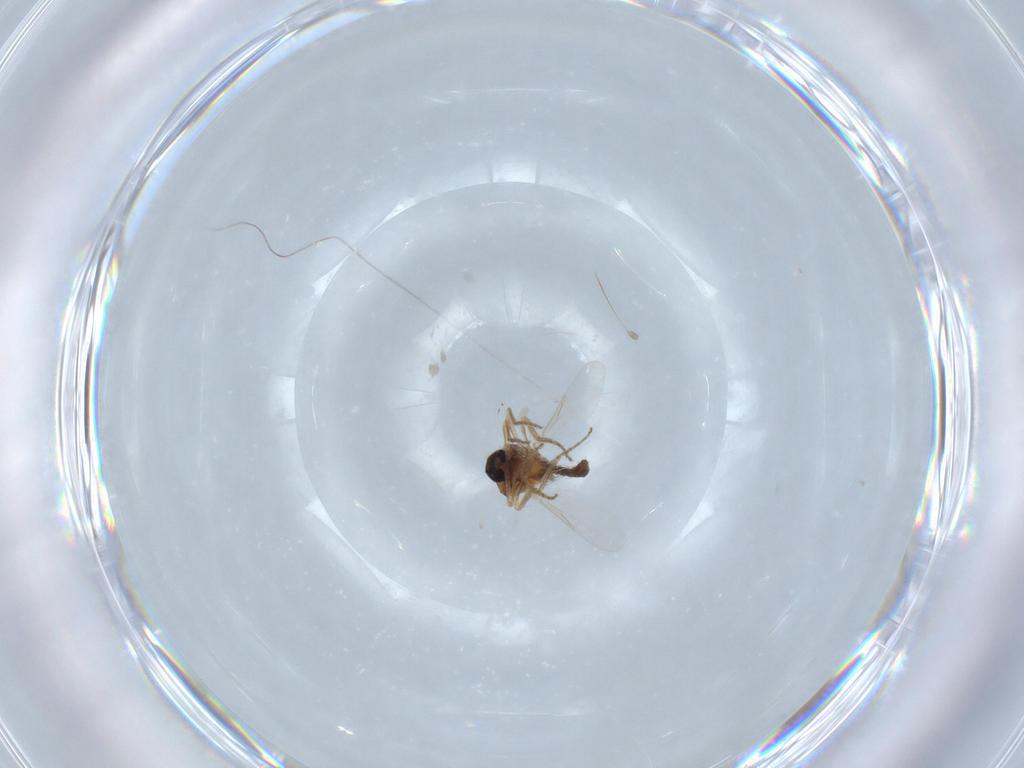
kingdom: Animalia
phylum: Arthropoda
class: Insecta
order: Diptera
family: Ceratopogonidae
